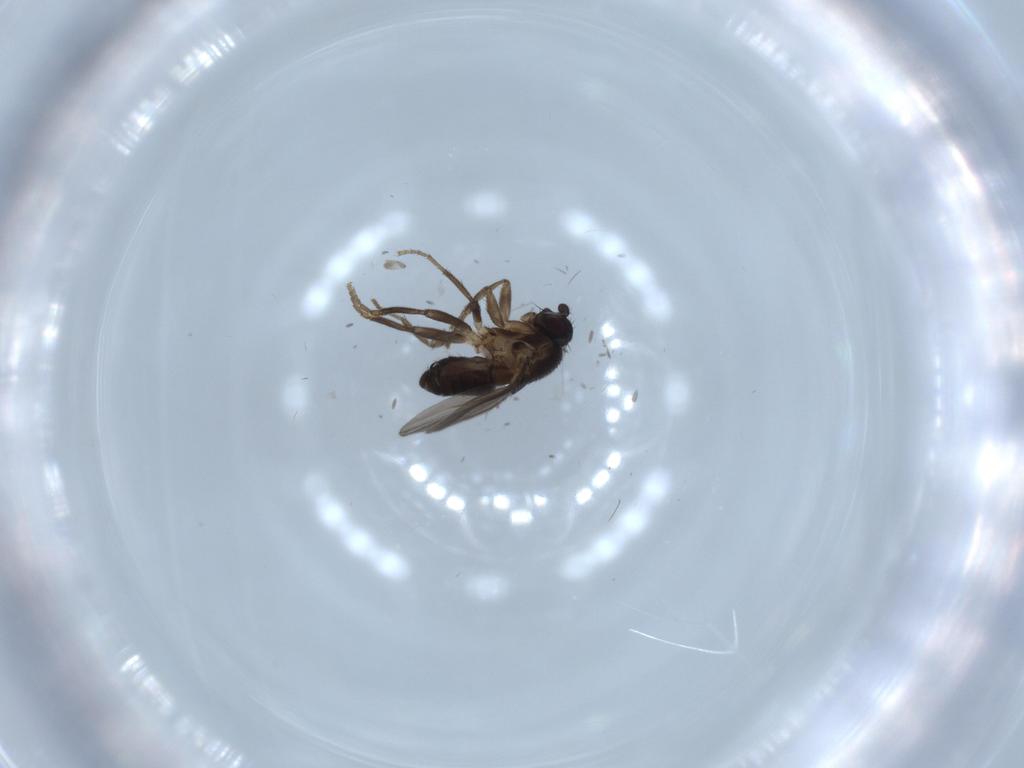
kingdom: Animalia
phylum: Arthropoda
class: Insecta
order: Diptera
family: Sphaeroceridae
